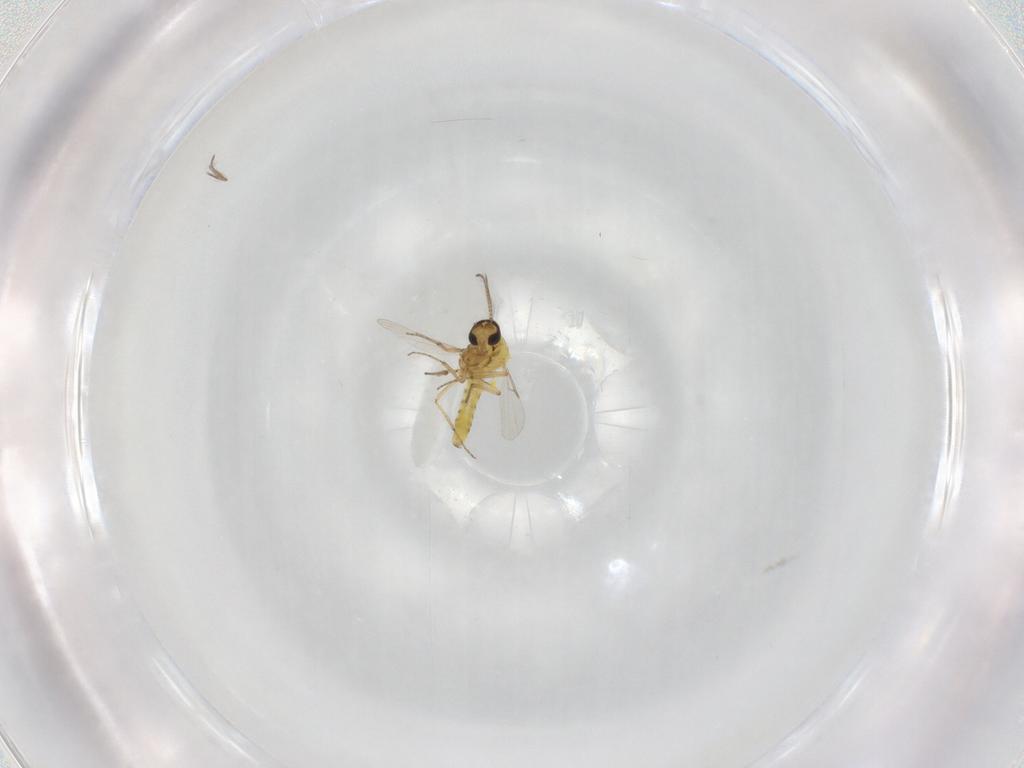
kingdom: Animalia
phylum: Arthropoda
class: Insecta
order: Diptera
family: Ceratopogonidae
